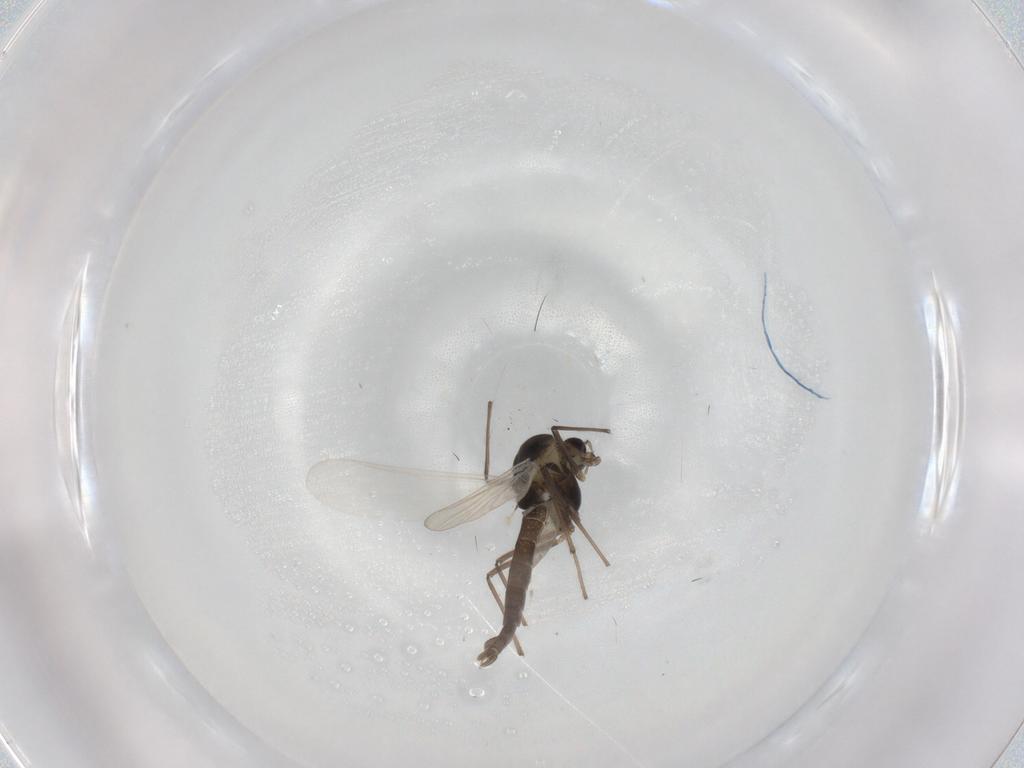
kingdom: Animalia
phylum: Arthropoda
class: Insecta
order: Diptera
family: Chironomidae
